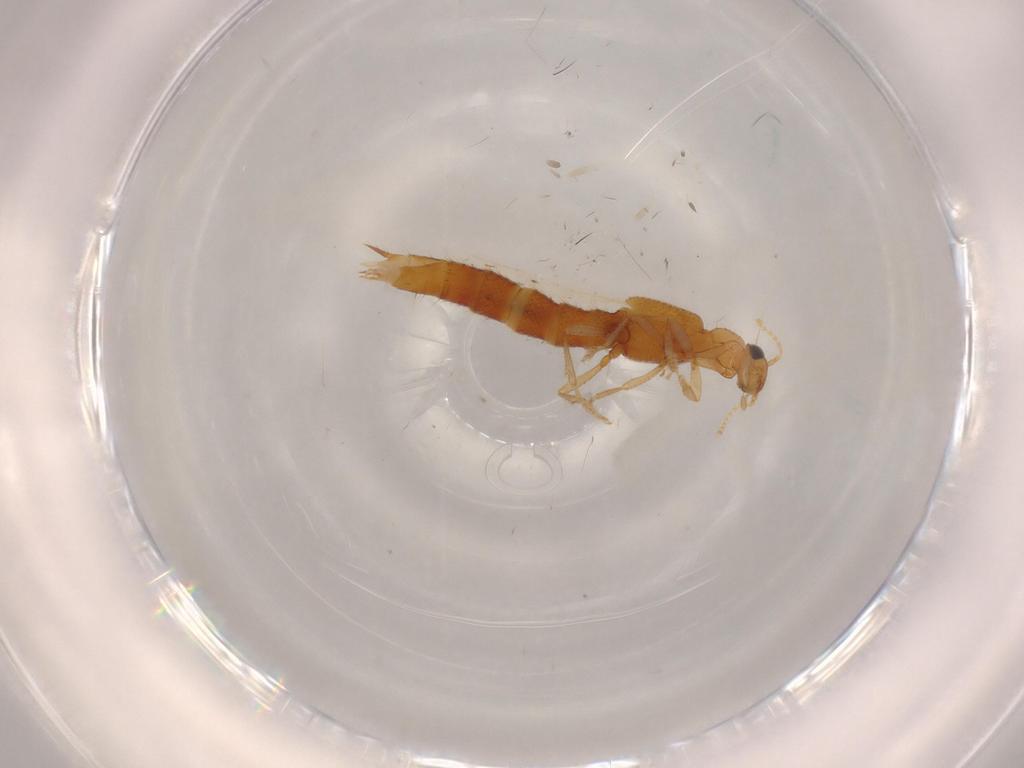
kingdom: Animalia
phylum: Arthropoda
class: Insecta
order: Coleoptera
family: Staphylinidae
